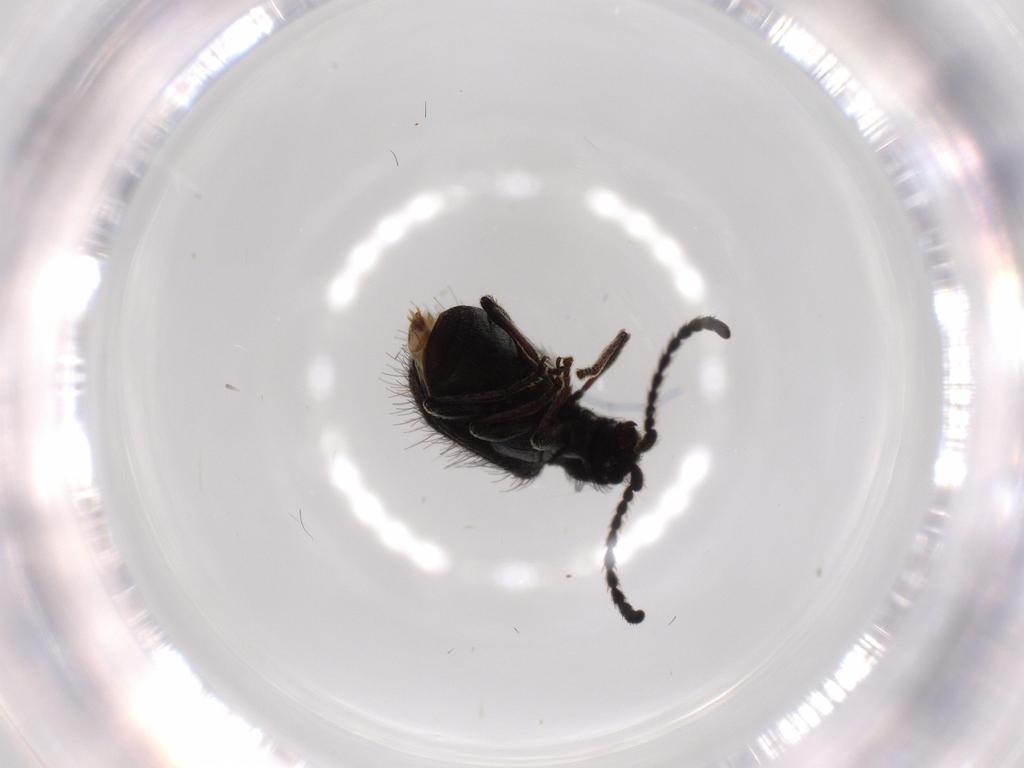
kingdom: Animalia
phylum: Arthropoda
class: Insecta
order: Coleoptera
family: Ptinidae
